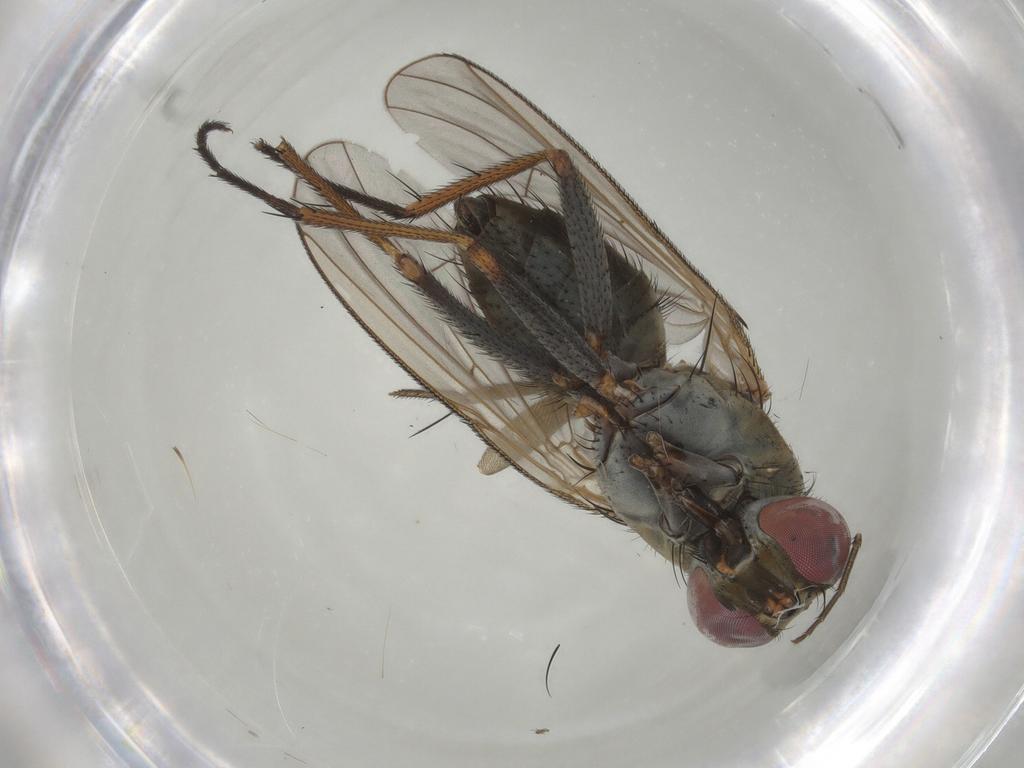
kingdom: Animalia
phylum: Arthropoda
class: Insecta
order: Diptera
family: Muscidae
